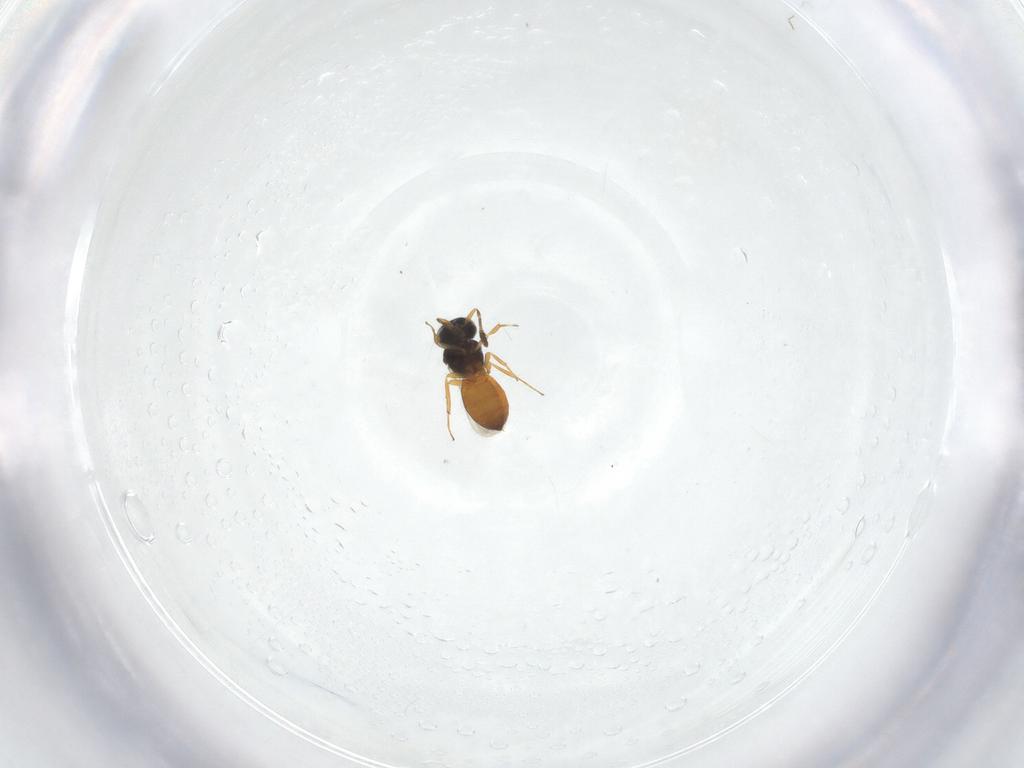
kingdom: Animalia
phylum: Arthropoda
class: Insecta
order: Hymenoptera
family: Scelionidae
